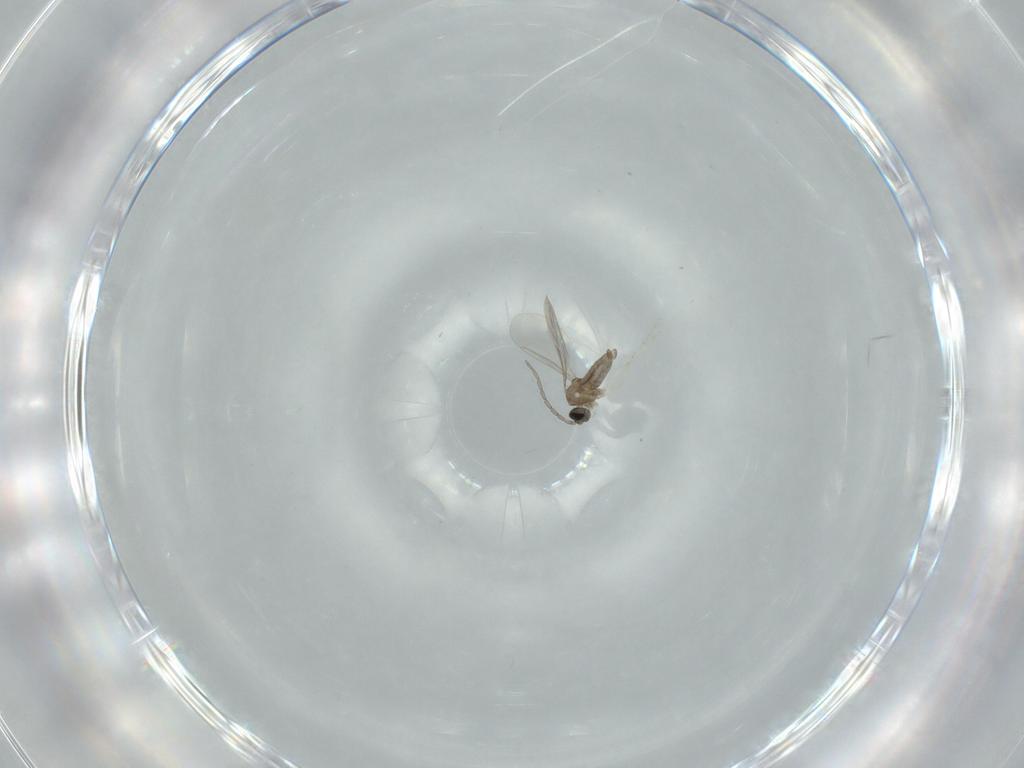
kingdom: Animalia
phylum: Arthropoda
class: Insecta
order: Diptera
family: Cecidomyiidae
